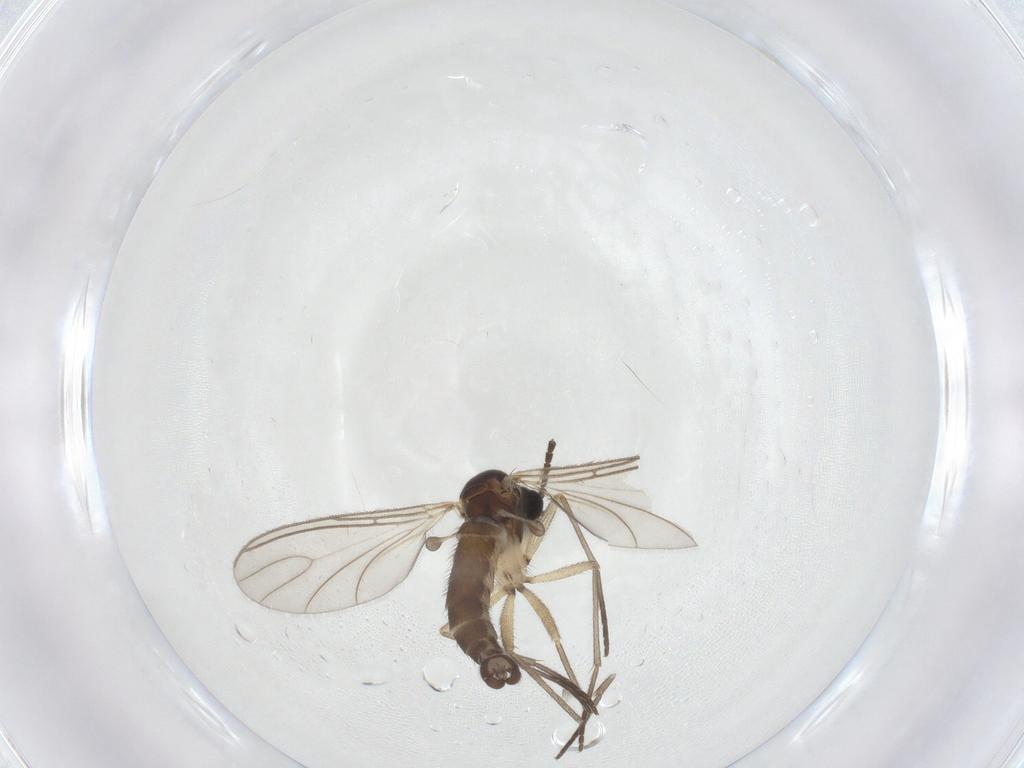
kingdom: Animalia
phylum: Arthropoda
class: Insecta
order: Diptera
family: Sciaridae
